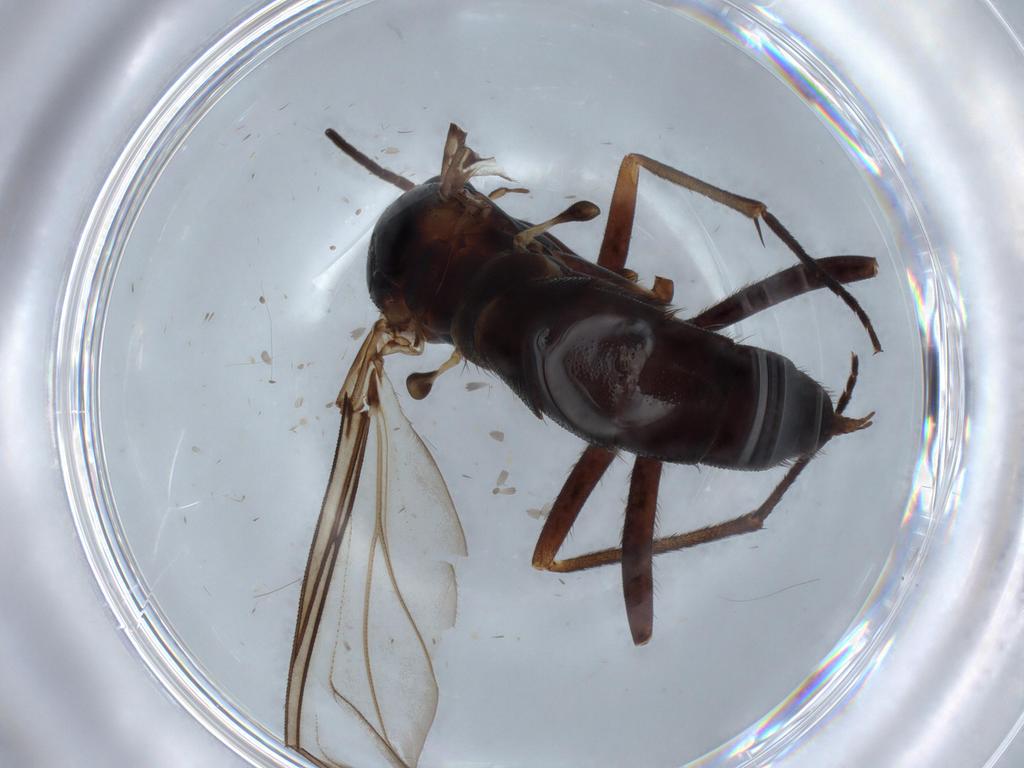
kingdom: Animalia
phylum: Arthropoda
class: Insecta
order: Diptera
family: Sciaridae
